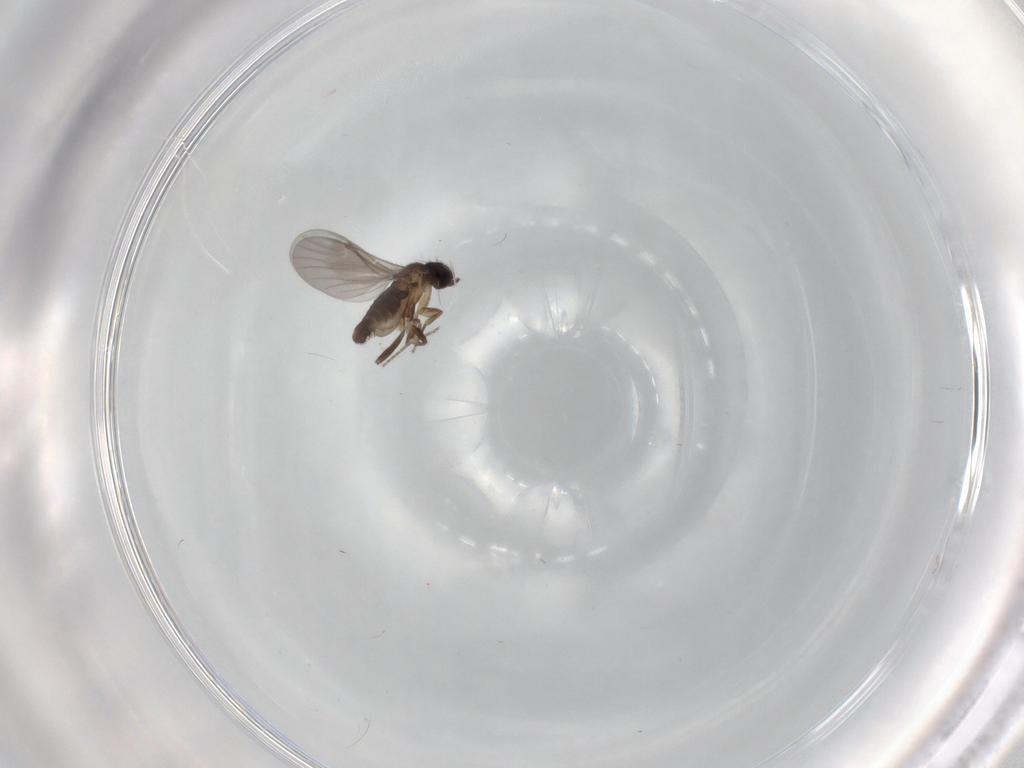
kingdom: Animalia
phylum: Arthropoda
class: Insecta
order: Diptera
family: Phoridae
